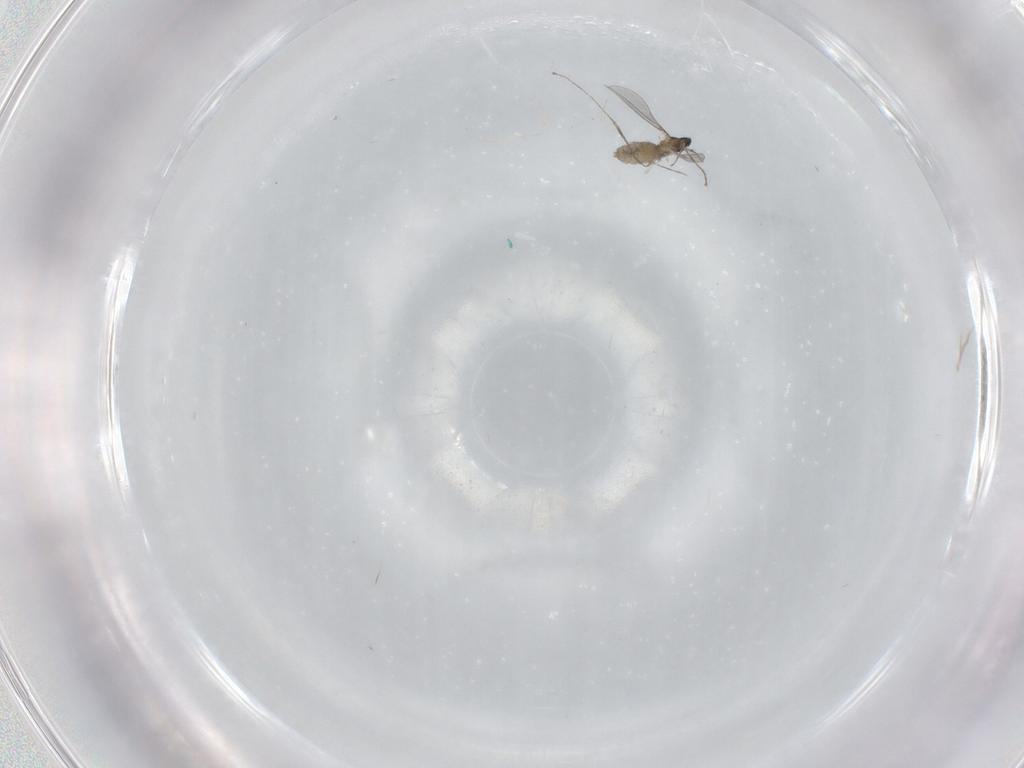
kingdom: Animalia
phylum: Arthropoda
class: Insecta
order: Diptera
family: Cecidomyiidae
